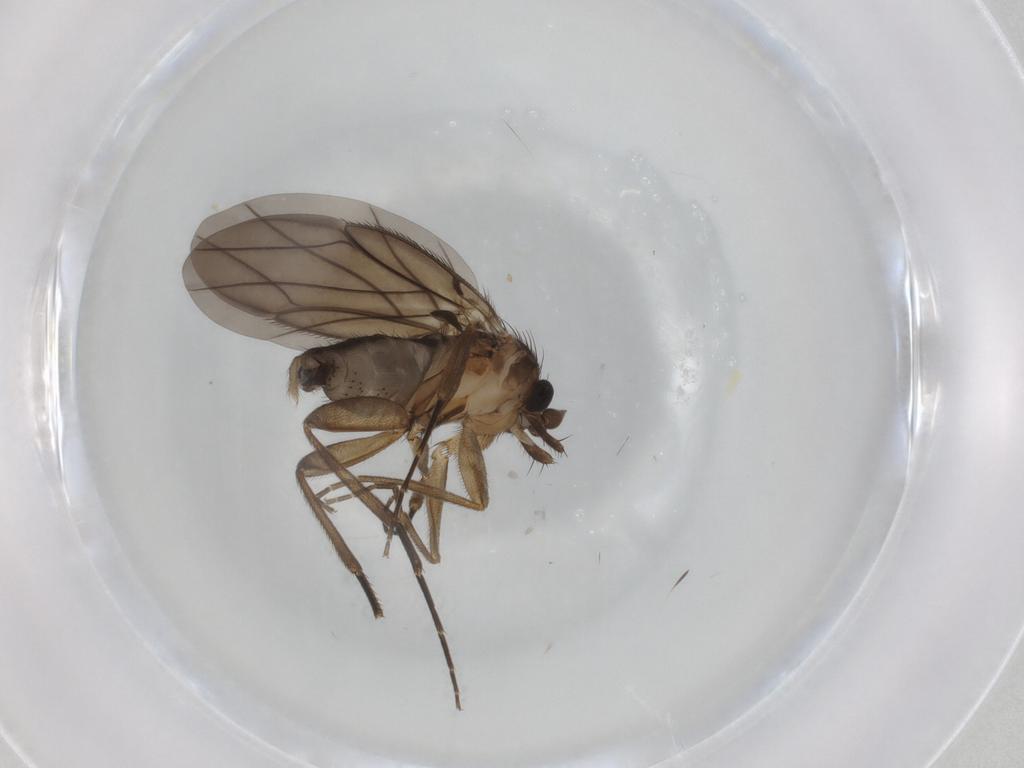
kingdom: Animalia
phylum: Arthropoda
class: Insecta
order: Diptera
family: Phoridae
